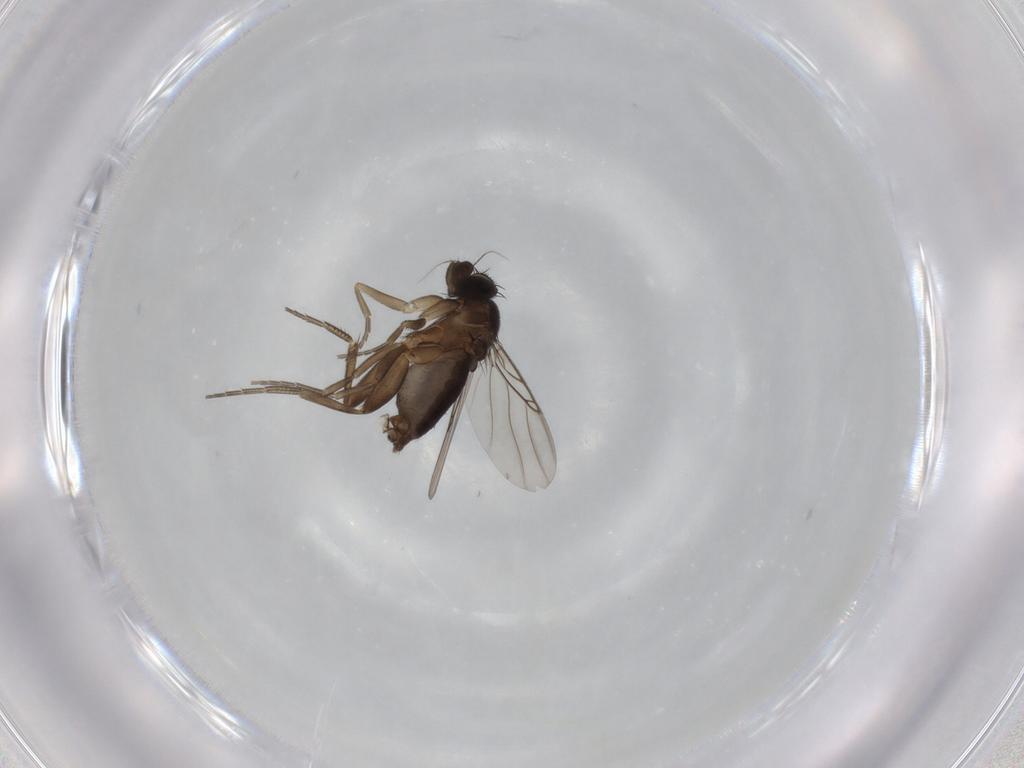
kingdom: Animalia
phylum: Arthropoda
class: Insecta
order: Diptera
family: Phoridae
